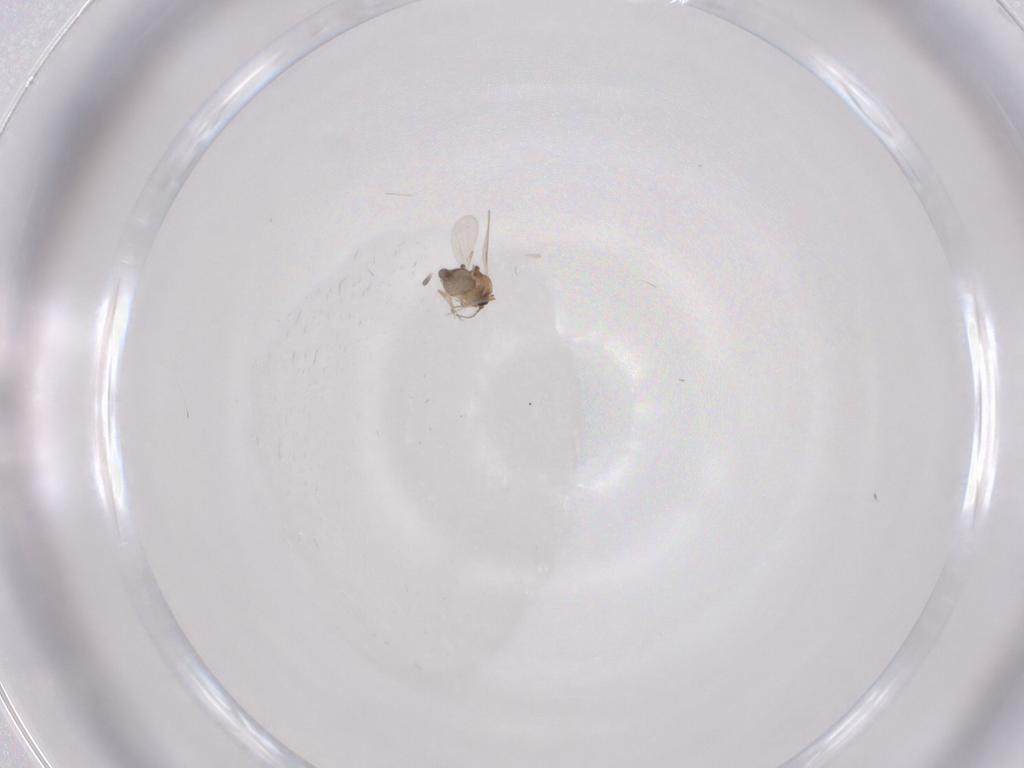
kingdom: Animalia
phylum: Arthropoda
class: Insecta
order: Diptera
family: Ceratopogonidae
